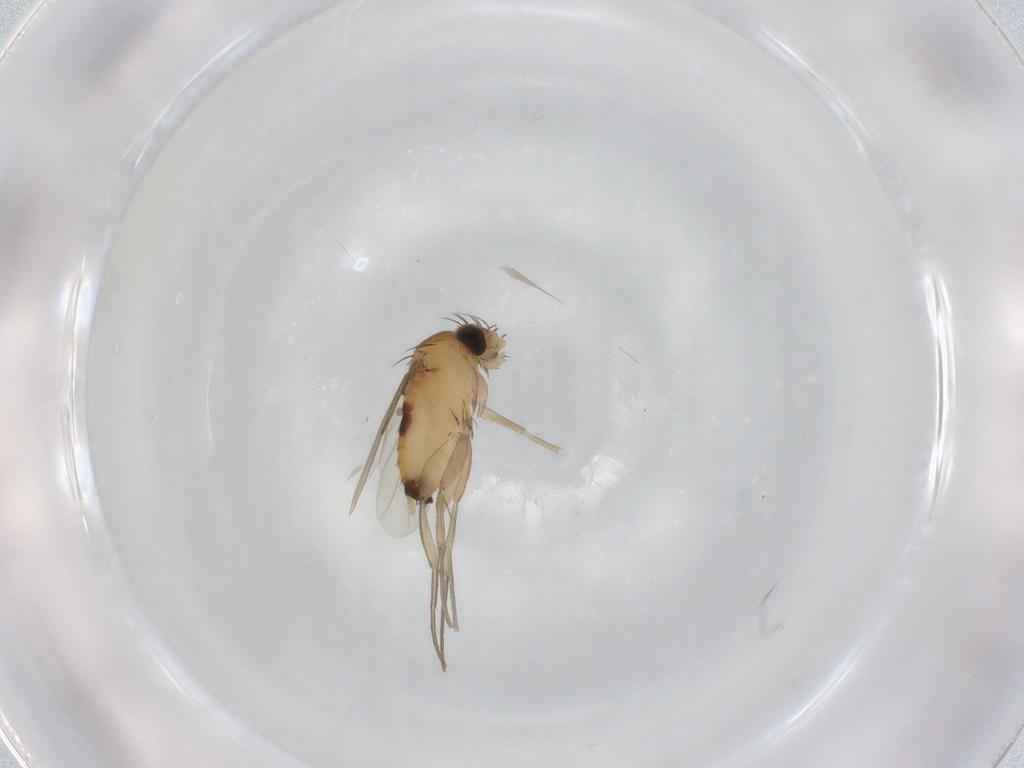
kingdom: Animalia
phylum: Arthropoda
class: Insecta
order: Diptera
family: Phoridae
